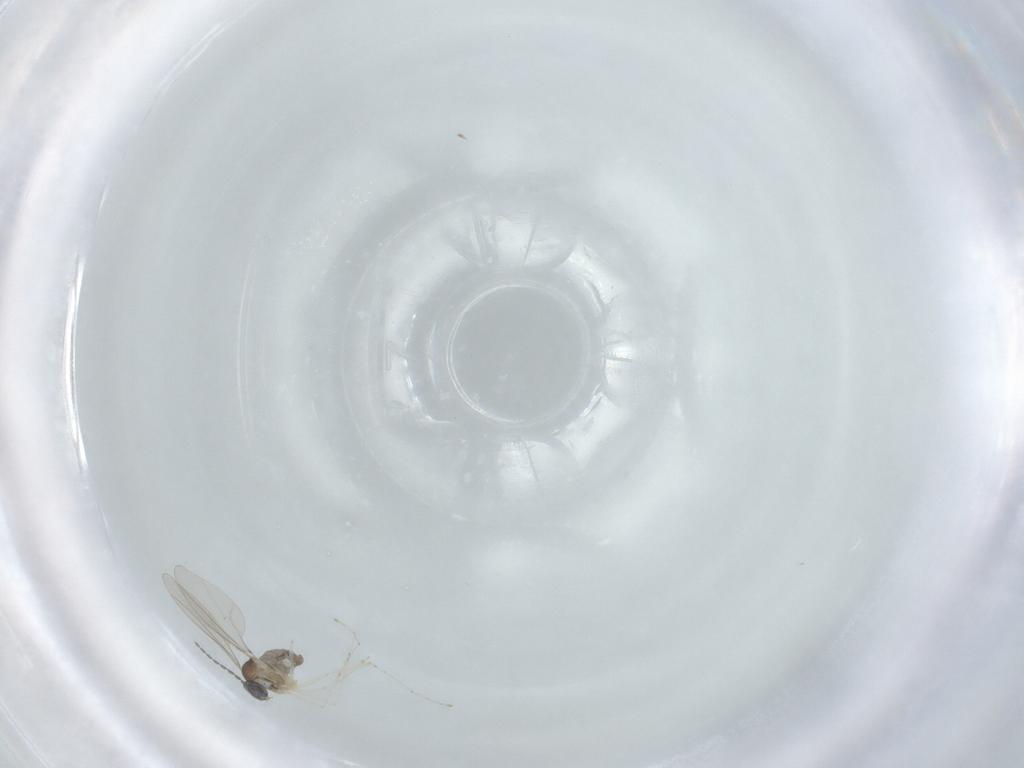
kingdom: Animalia
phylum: Arthropoda
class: Insecta
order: Diptera
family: Cecidomyiidae
